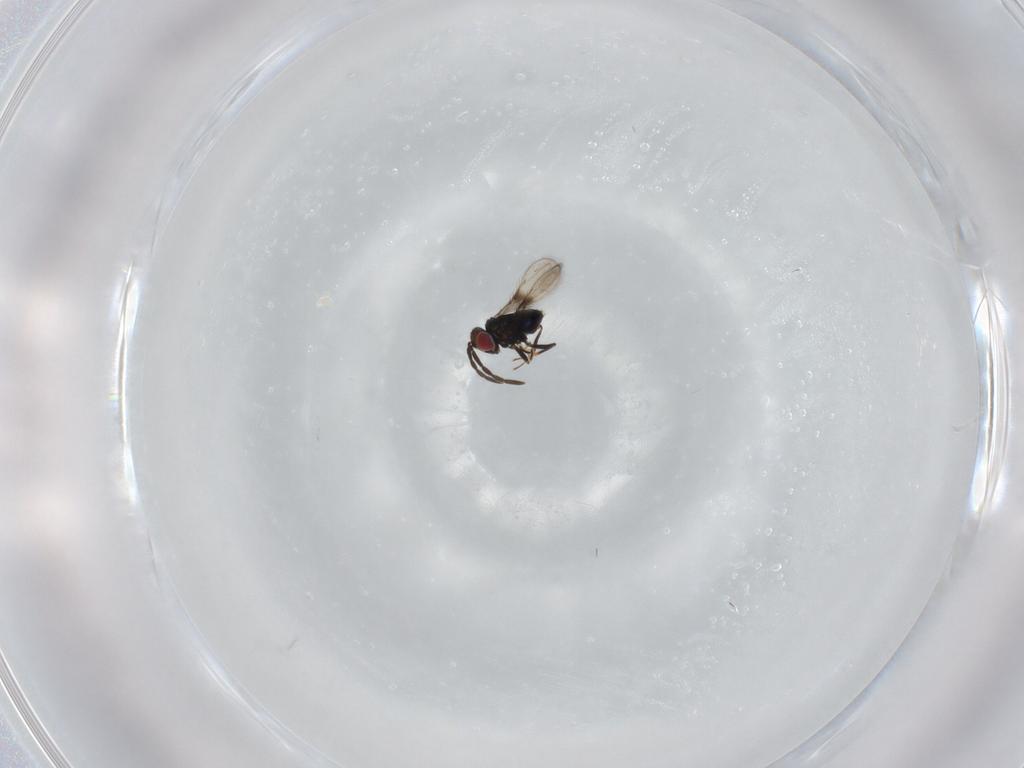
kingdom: Animalia
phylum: Arthropoda
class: Insecta
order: Hymenoptera
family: Azotidae
